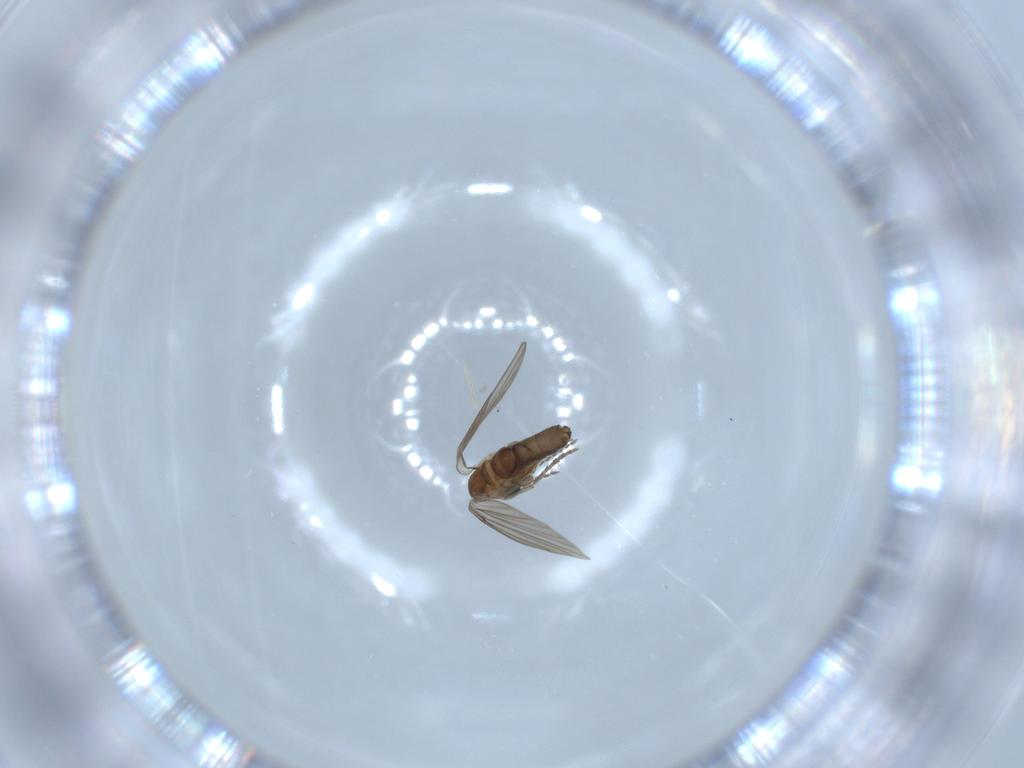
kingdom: Animalia
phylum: Arthropoda
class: Insecta
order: Diptera
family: Psychodidae
